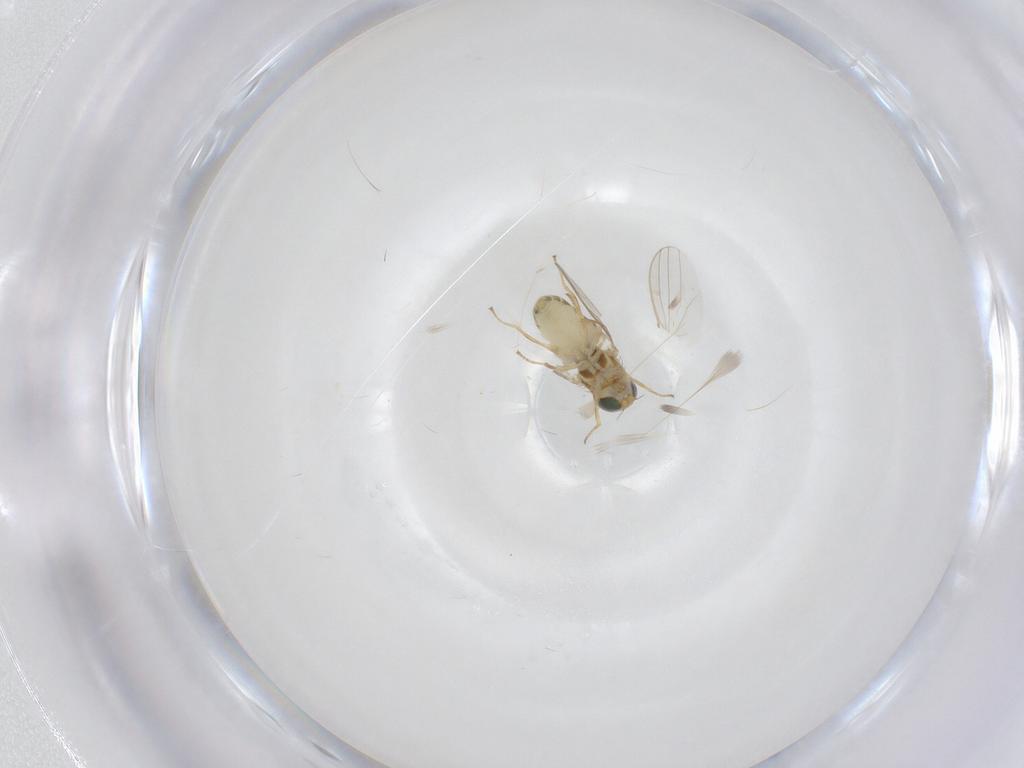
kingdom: Animalia
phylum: Arthropoda
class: Insecta
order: Diptera
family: Chyromyidae
